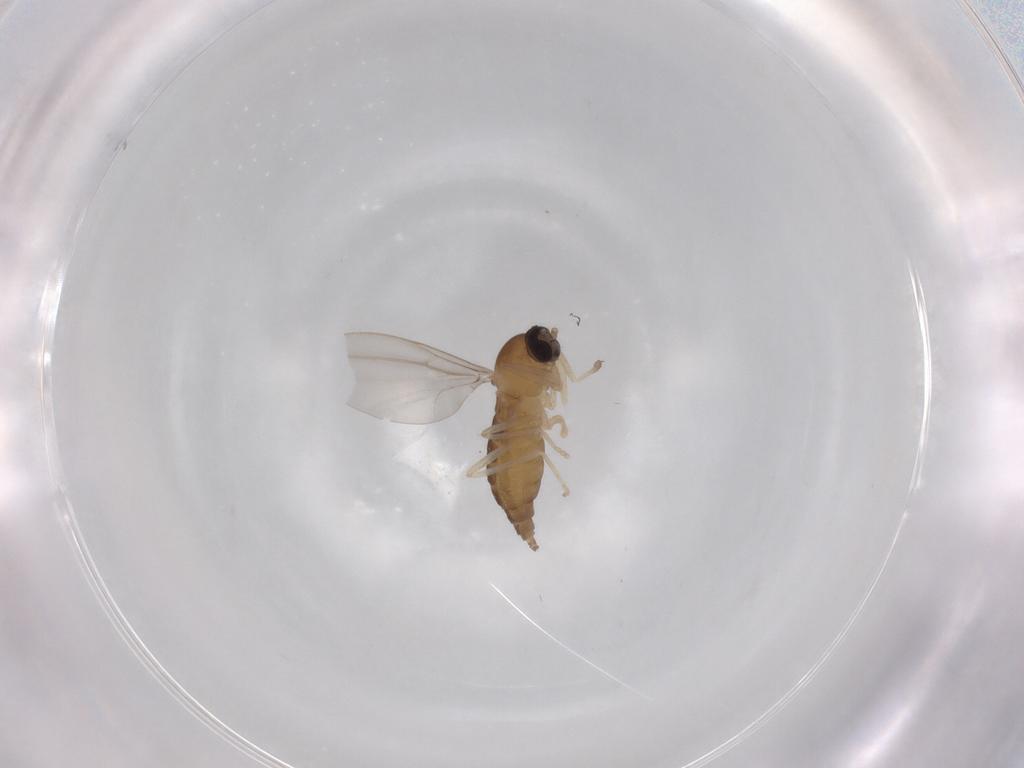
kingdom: Animalia
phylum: Arthropoda
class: Insecta
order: Diptera
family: Cecidomyiidae
